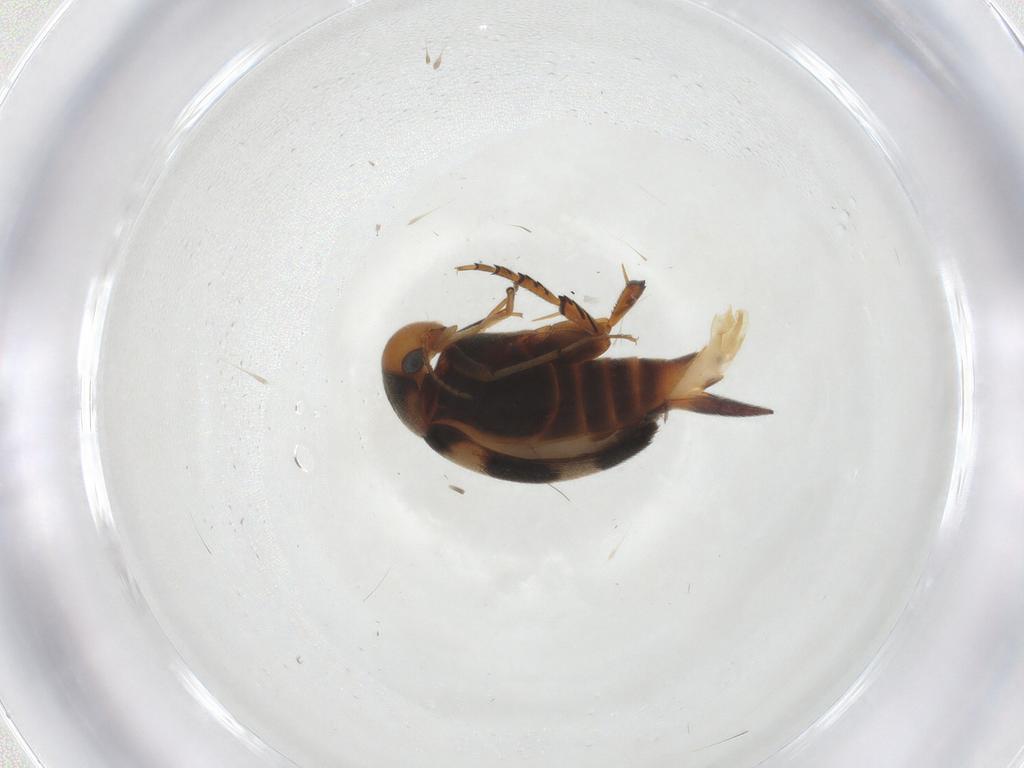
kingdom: Animalia
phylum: Arthropoda
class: Insecta
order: Coleoptera
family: Mordellidae
